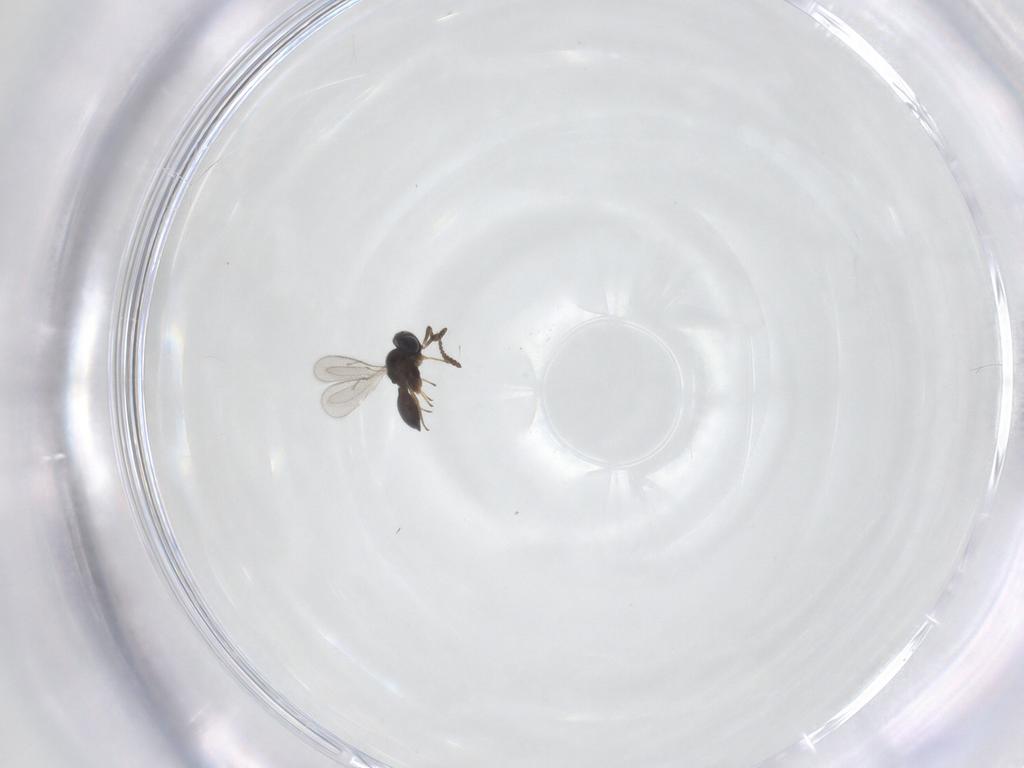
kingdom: Animalia
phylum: Arthropoda
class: Insecta
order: Hymenoptera
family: Scelionidae
